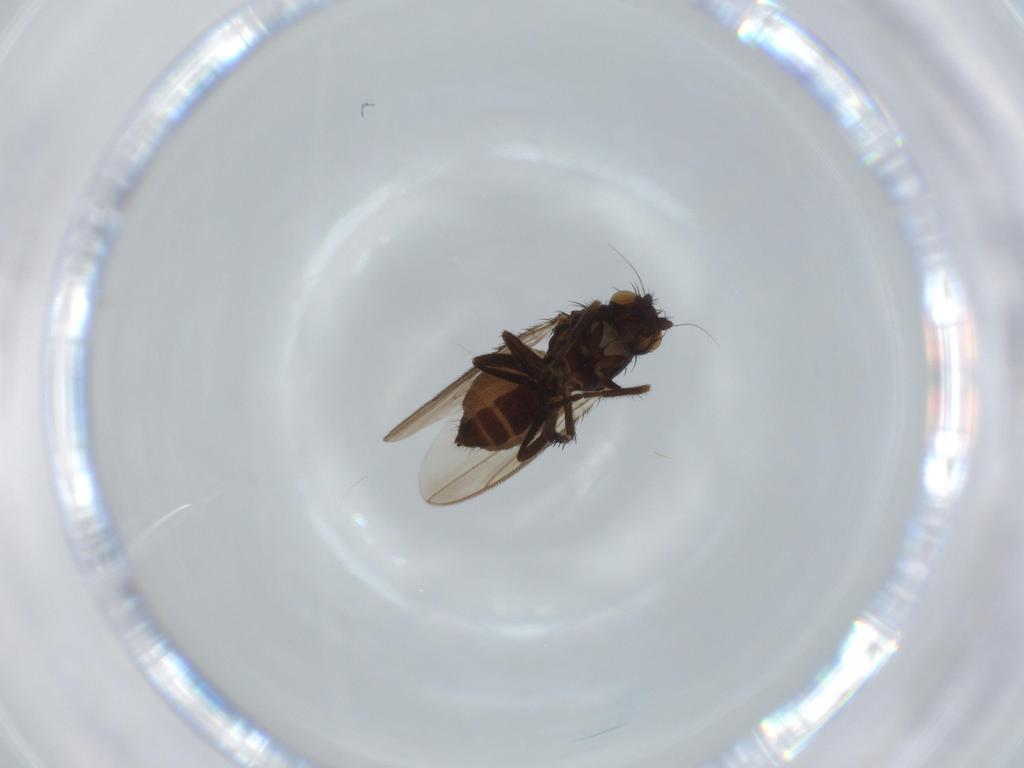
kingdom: Animalia
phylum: Arthropoda
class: Insecta
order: Diptera
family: Sphaeroceridae
